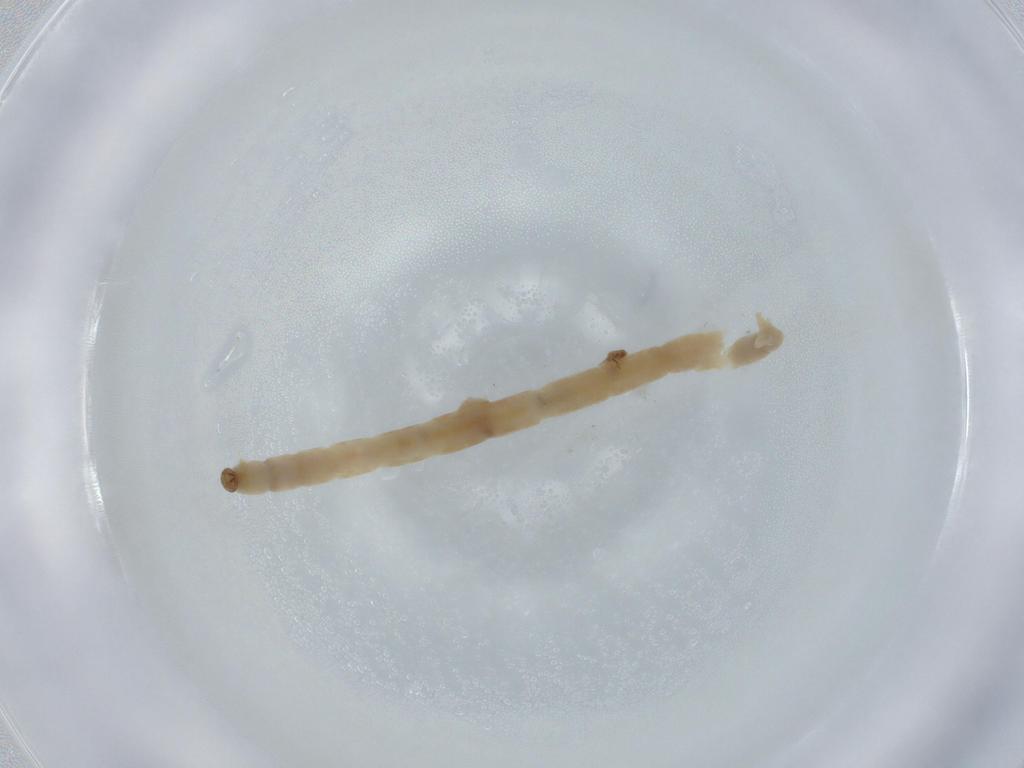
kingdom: Animalia
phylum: Arthropoda
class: Insecta
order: Diptera
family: Chironomidae
